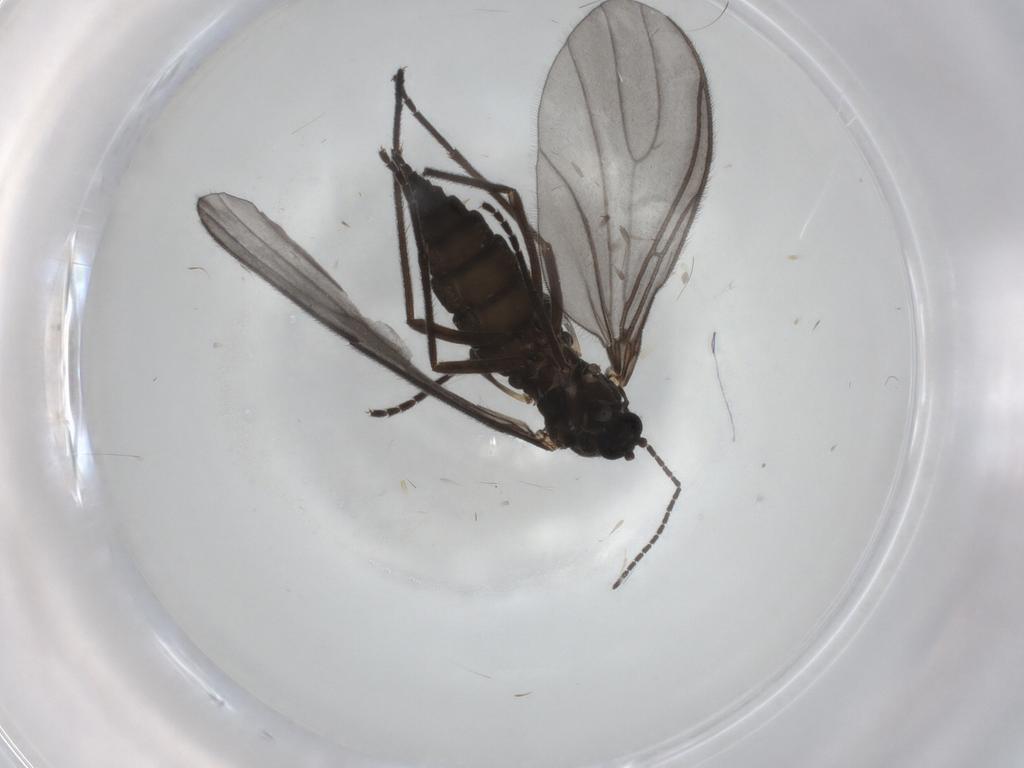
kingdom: Animalia
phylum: Arthropoda
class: Insecta
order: Diptera
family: Sciaridae
